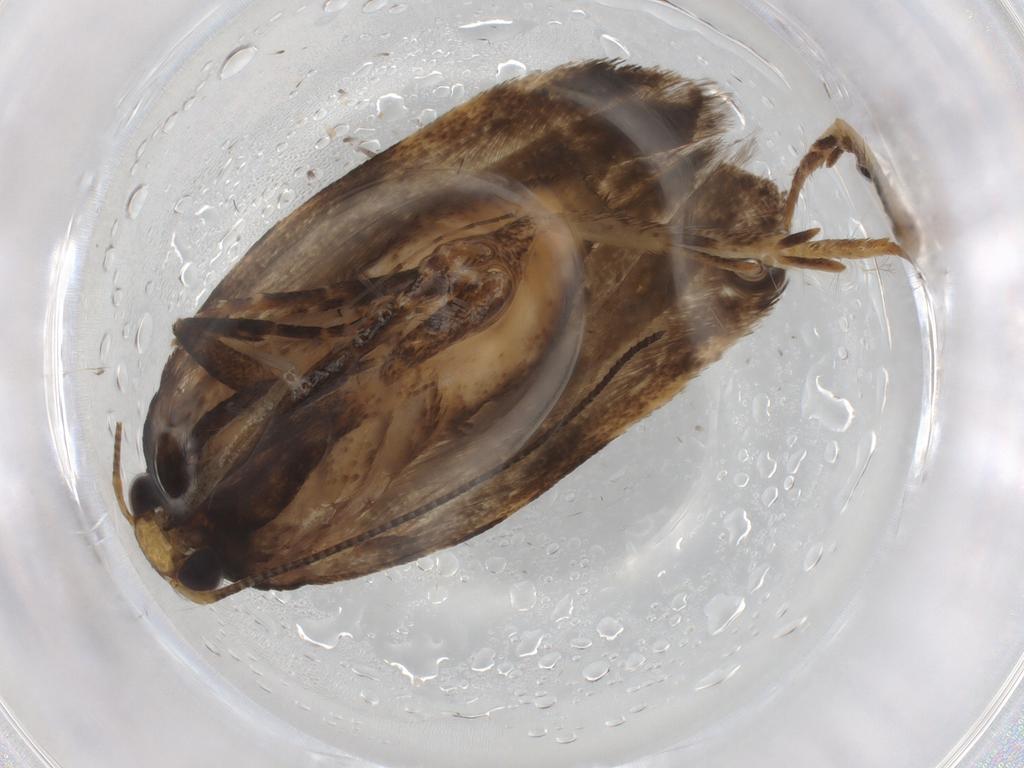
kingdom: Animalia
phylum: Arthropoda
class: Insecta
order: Lepidoptera
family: Gelechiidae
